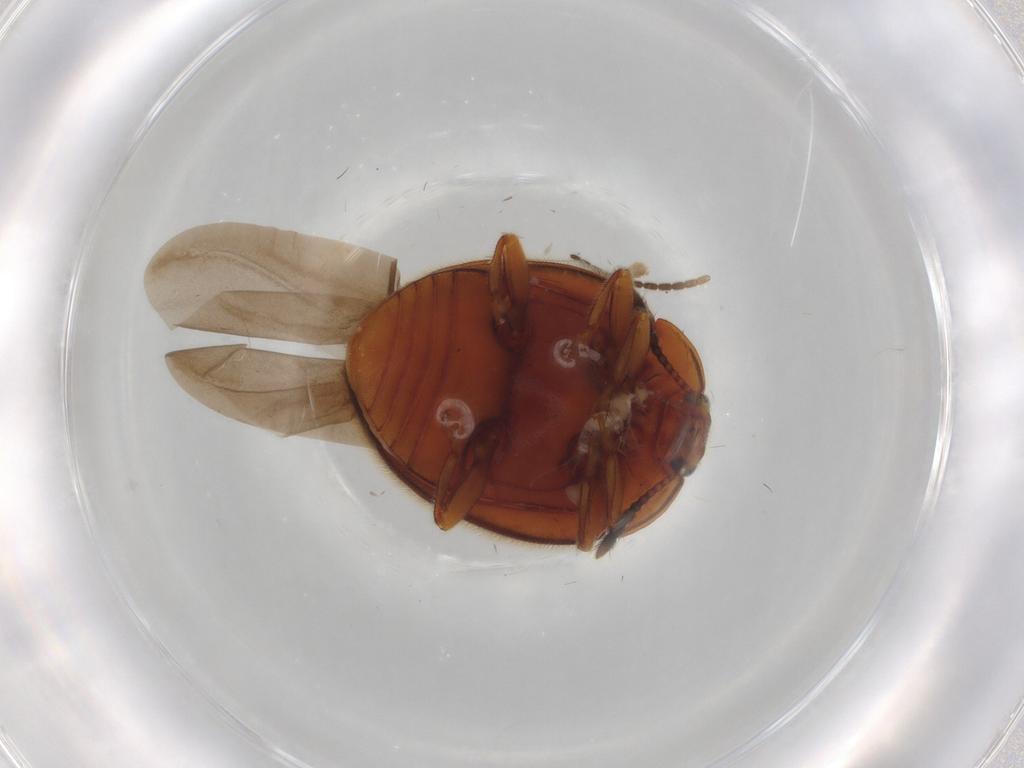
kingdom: Animalia
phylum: Arthropoda
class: Insecta
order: Coleoptera
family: Endomychidae
